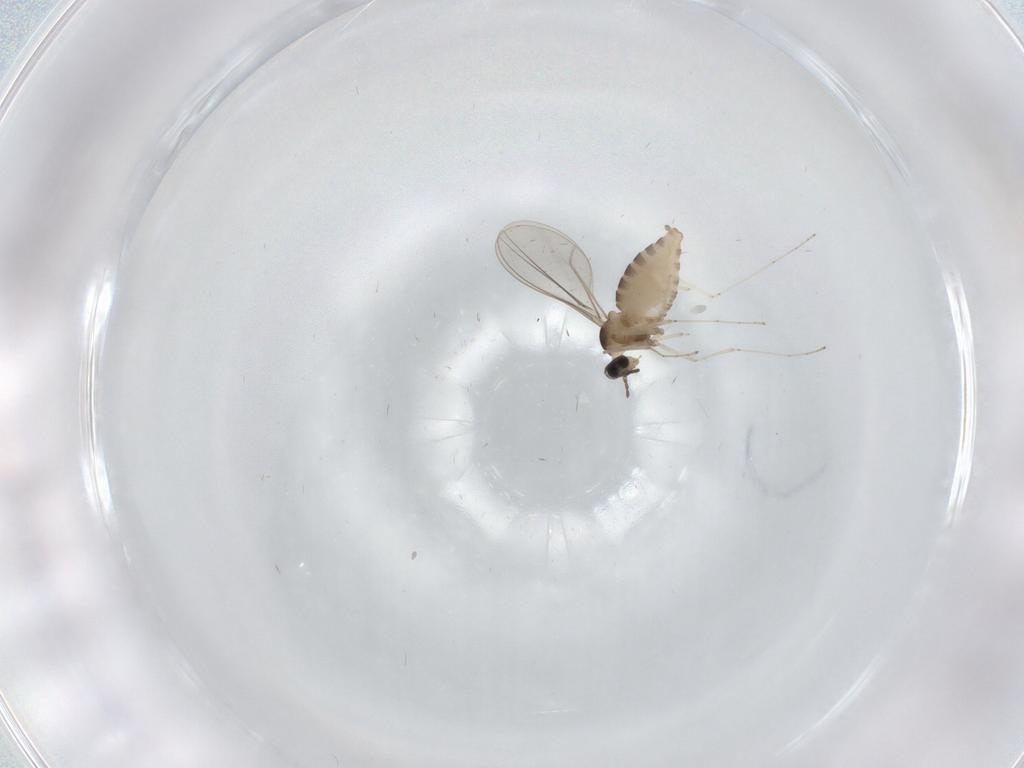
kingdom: Animalia
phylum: Arthropoda
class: Insecta
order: Diptera
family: Cecidomyiidae
